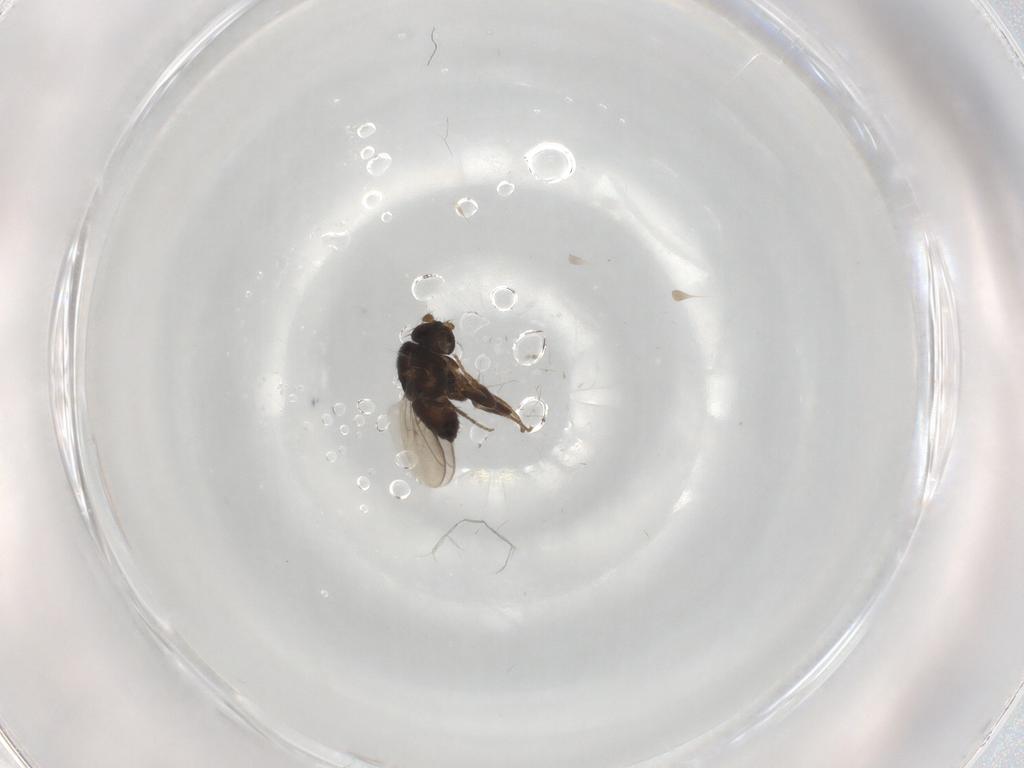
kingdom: Animalia
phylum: Arthropoda
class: Insecta
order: Diptera
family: Sphaeroceridae
